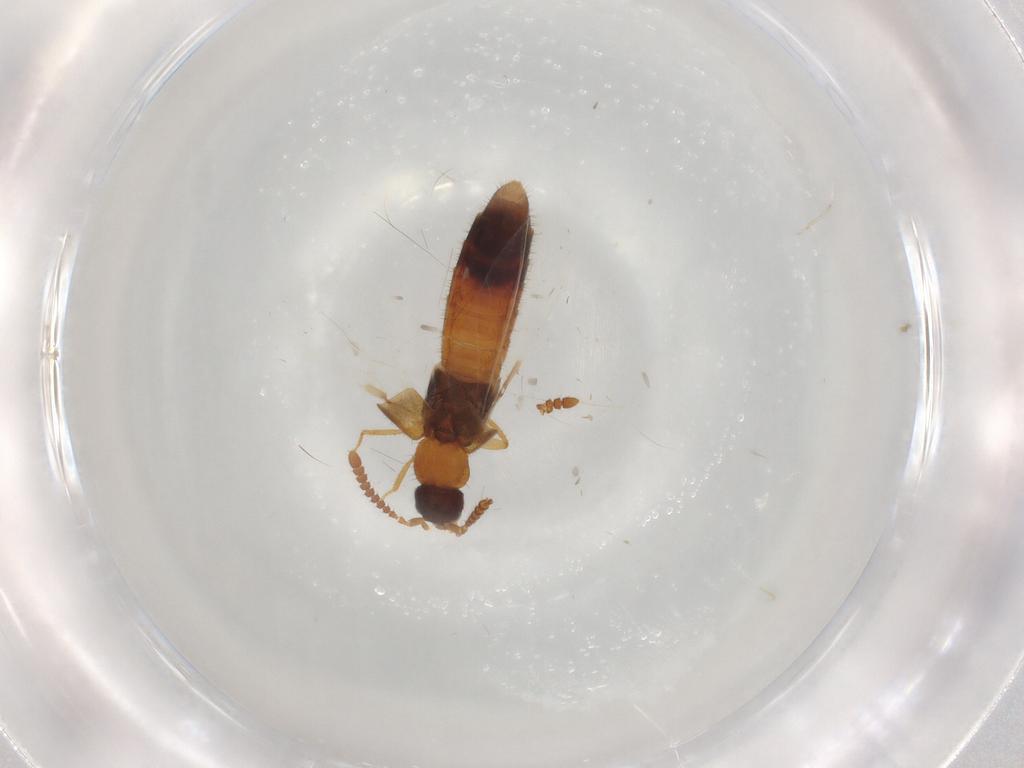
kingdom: Animalia
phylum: Arthropoda
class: Insecta
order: Coleoptera
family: Staphylinidae
